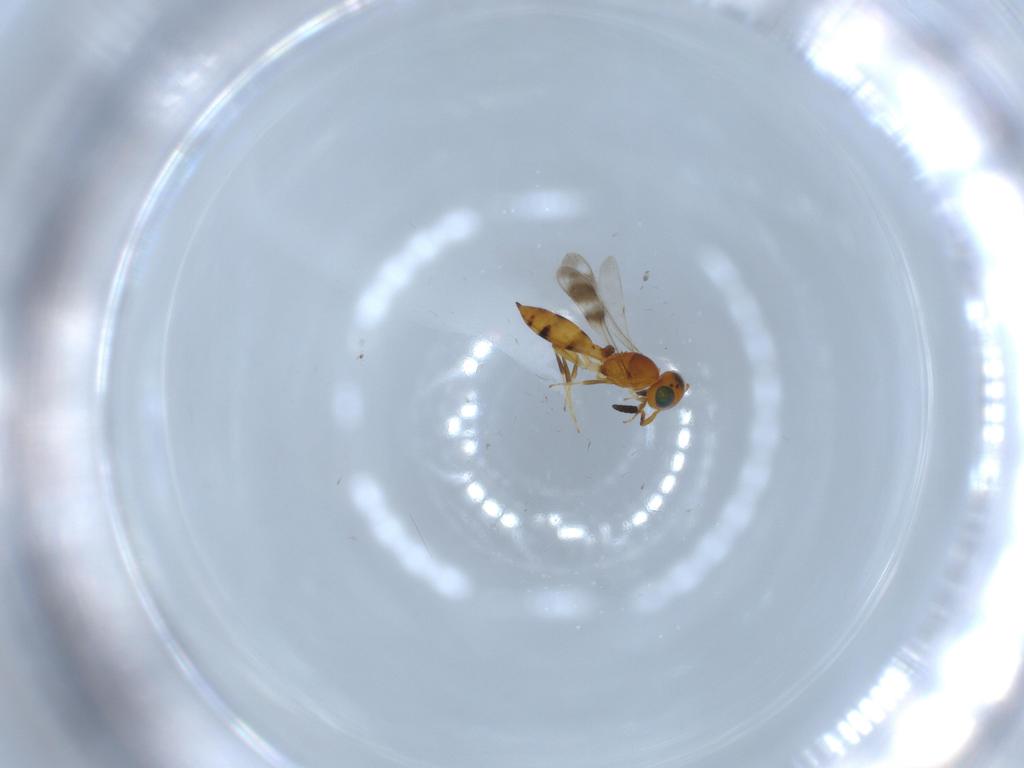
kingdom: Animalia
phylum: Arthropoda
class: Insecta
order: Hymenoptera
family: Scelionidae
